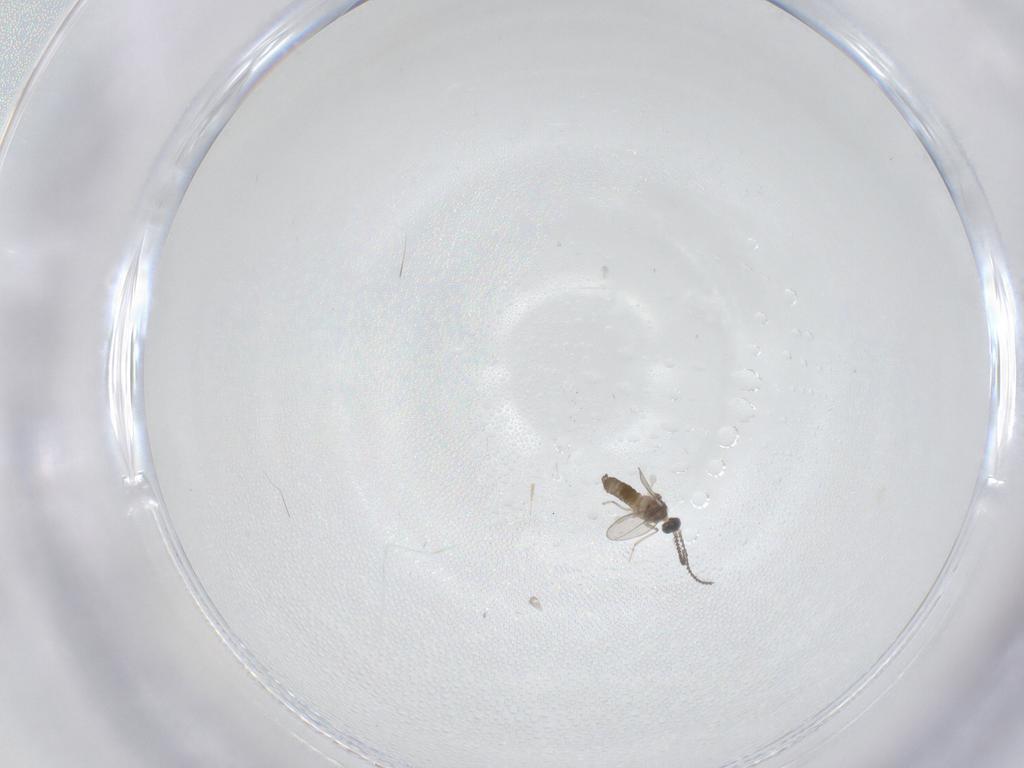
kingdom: Animalia
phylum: Arthropoda
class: Insecta
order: Diptera
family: Cecidomyiidae
